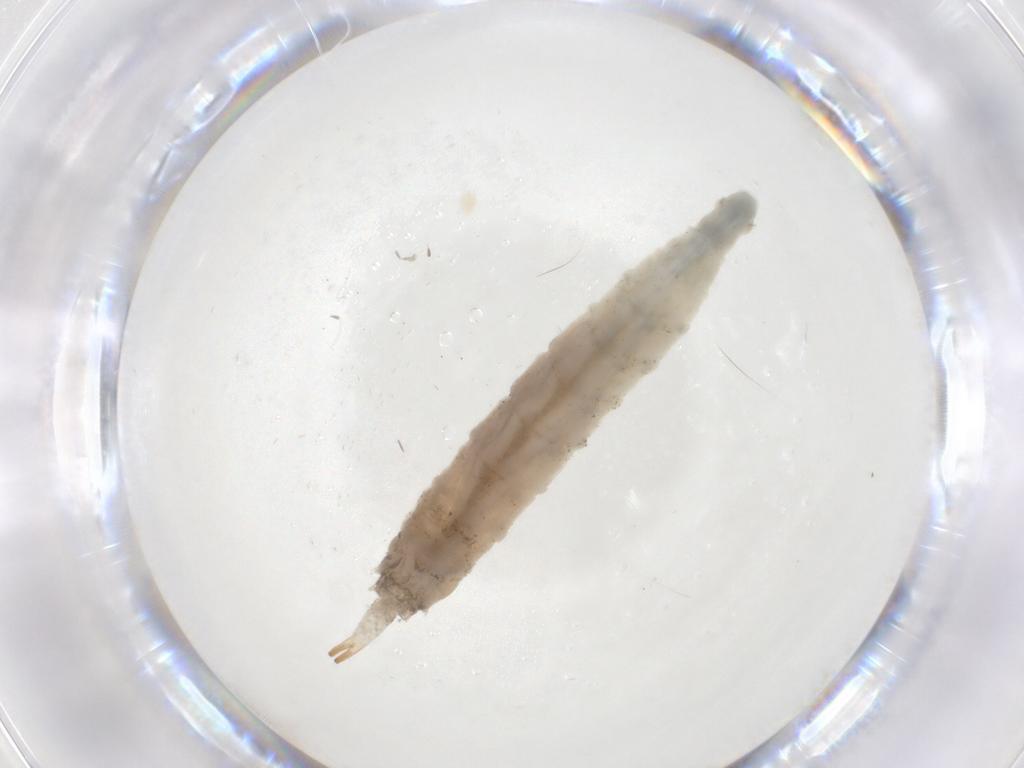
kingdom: Animalia
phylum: Arthropoda
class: Insecta
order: Diptera
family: Drosophilidae
